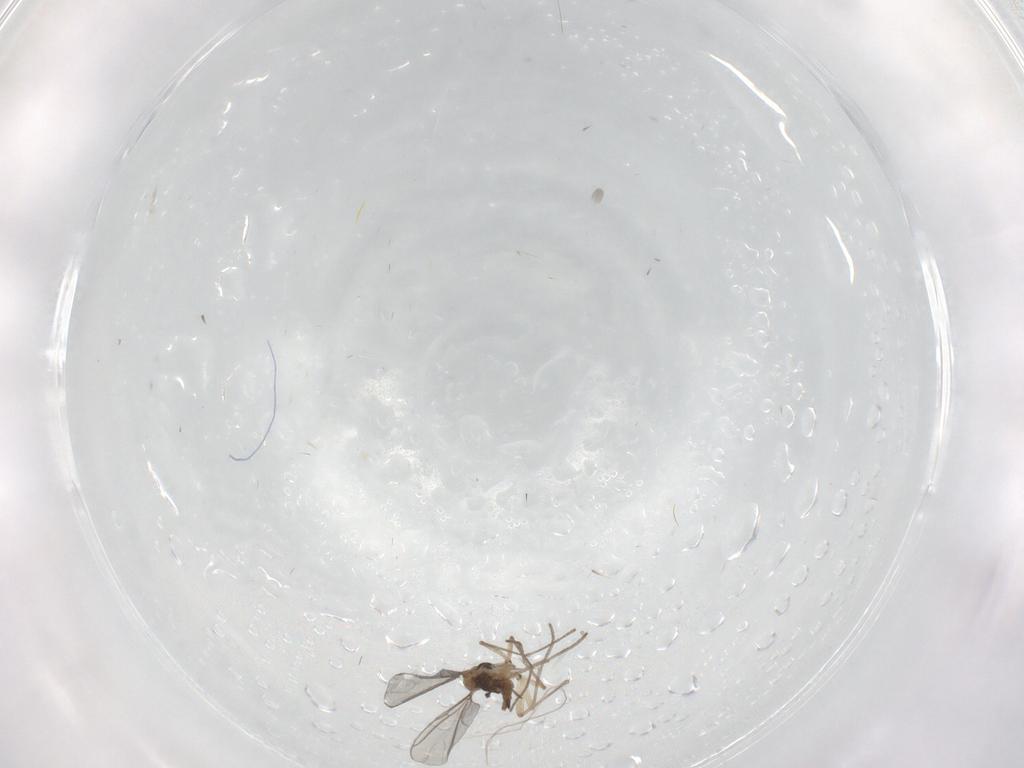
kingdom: Animalia
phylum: Arthropoda
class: Insecta
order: Diptera
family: Sciaridae
